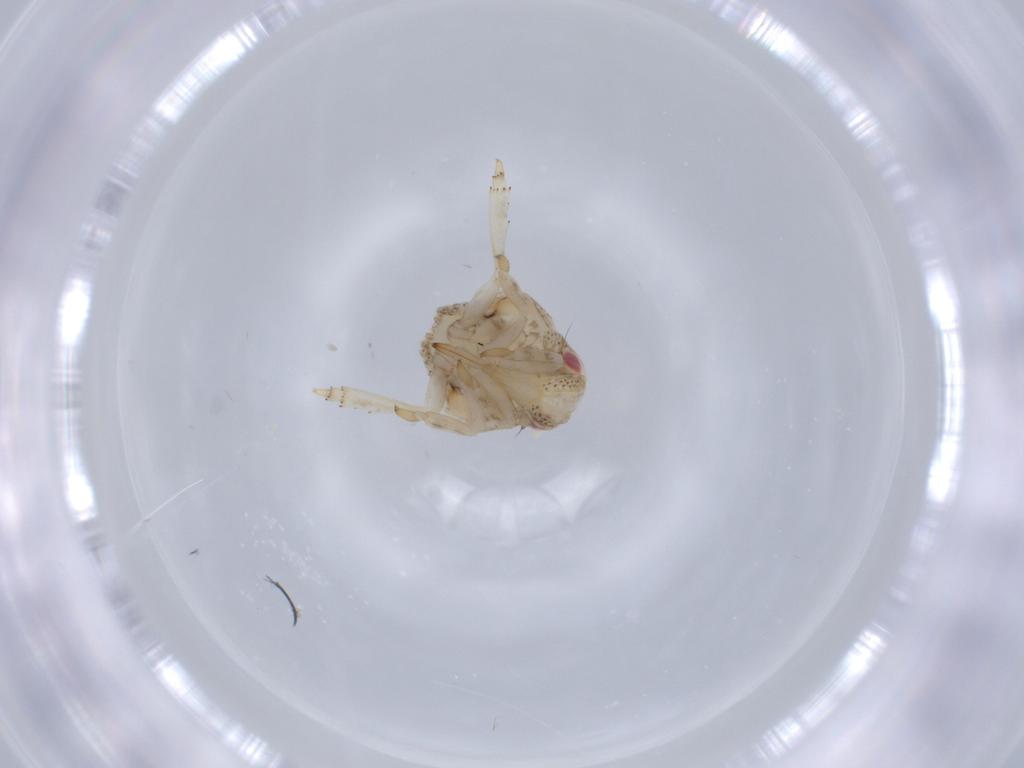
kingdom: Animalia
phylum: Arthropoda
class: Insecta
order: Hemiptera
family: Acanaloniidae
